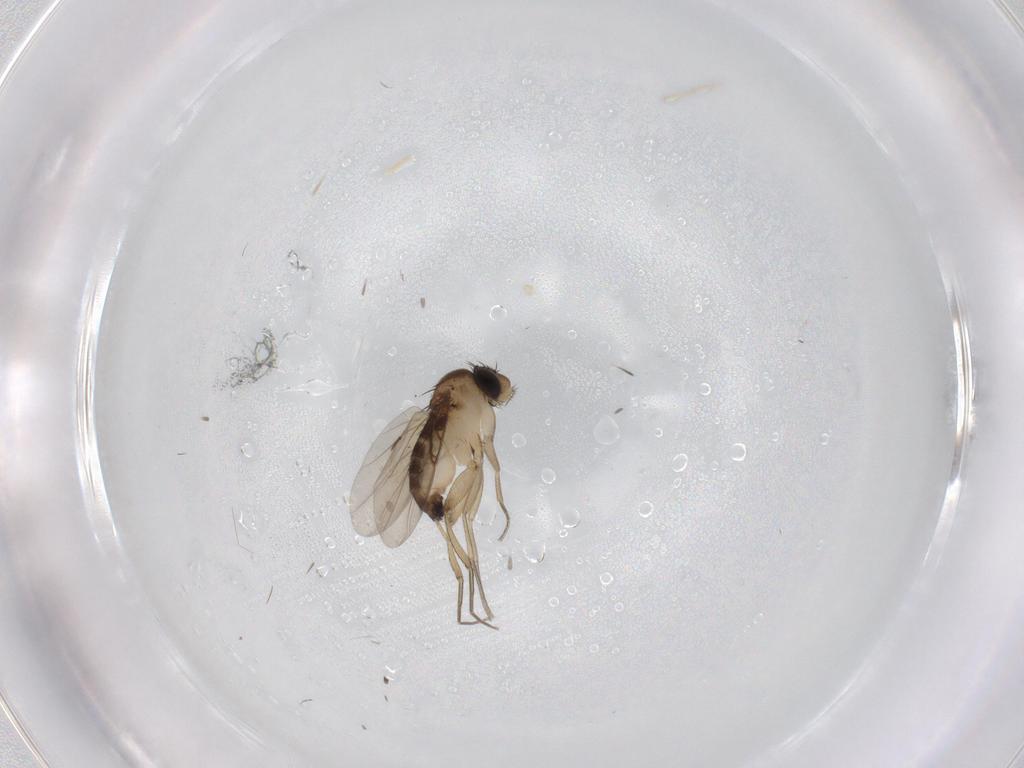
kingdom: Animalia
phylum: Arthropoda
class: Insecta
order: Diptera
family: Phoridae
